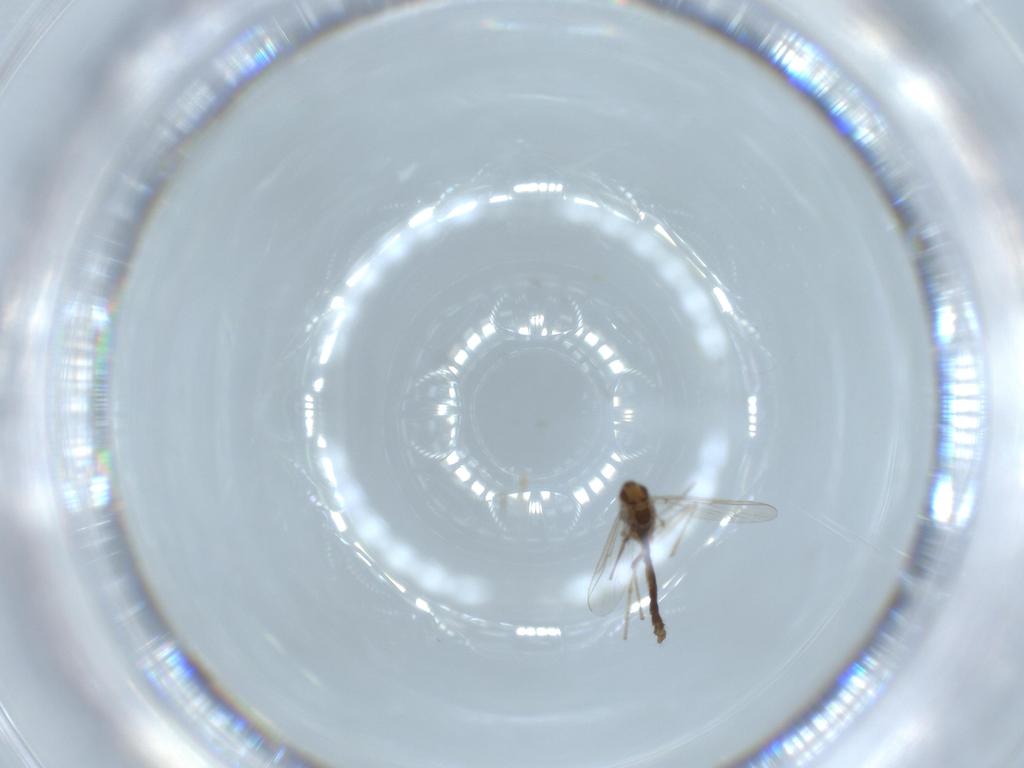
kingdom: Animalia
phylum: Arthropoda
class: Insecta
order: Diptera
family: Chironomidae
